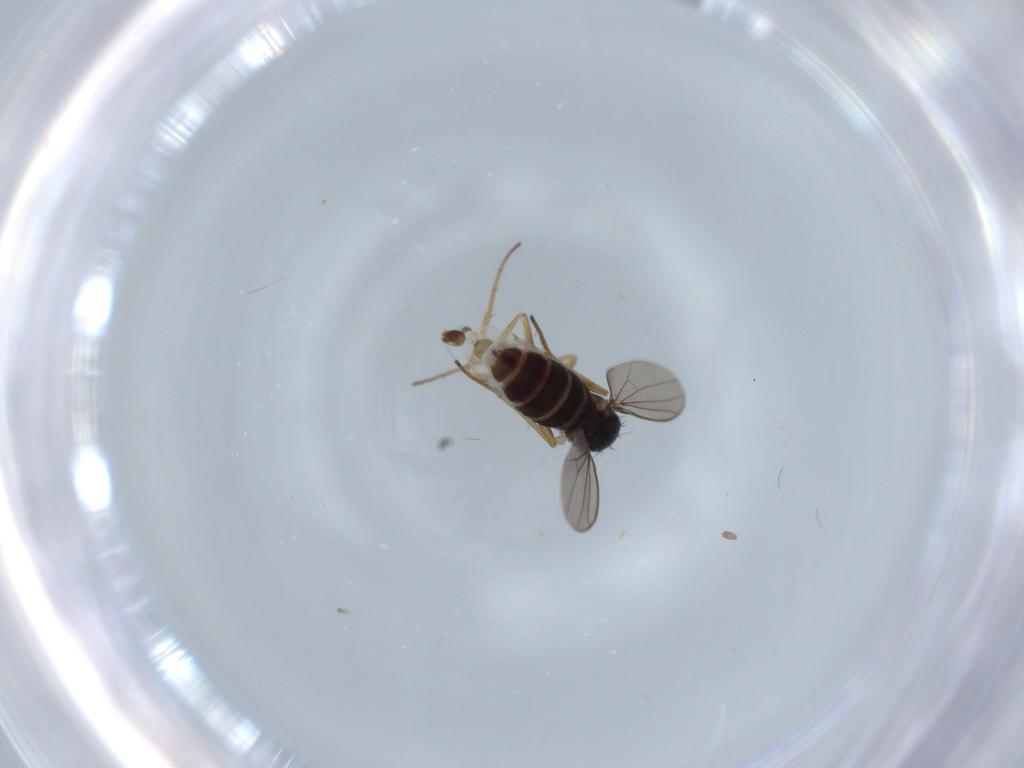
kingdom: Animalia
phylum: Arthropoda
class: Insecta
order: Diptera
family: Dolichopodidae
